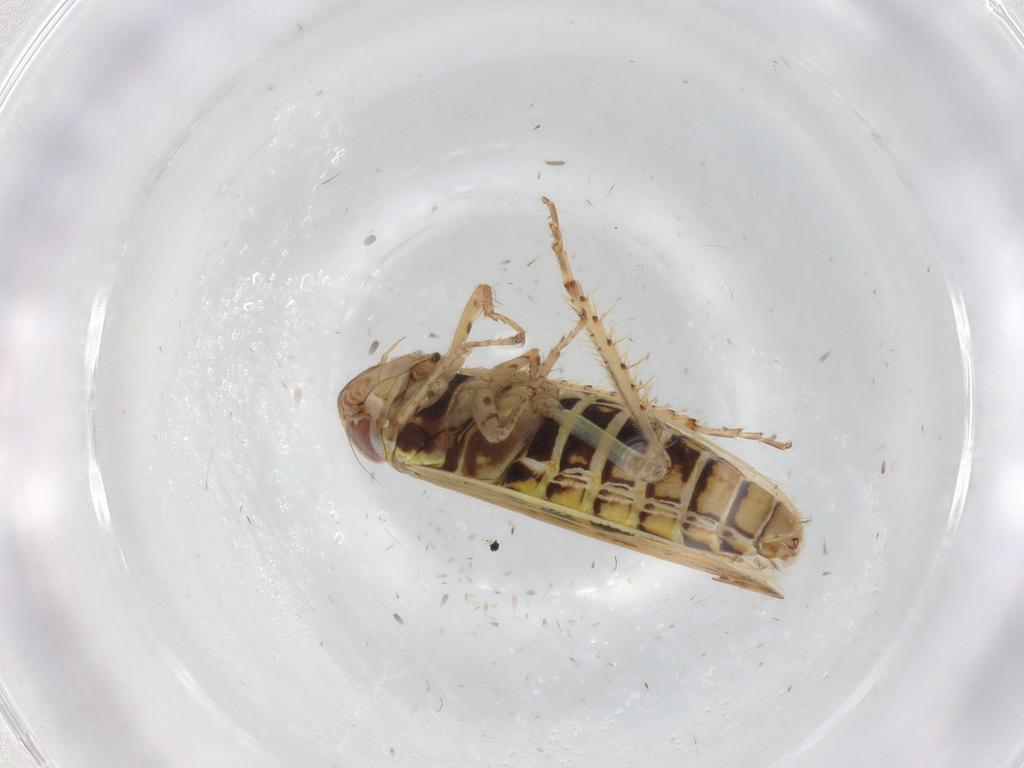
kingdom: Animalia
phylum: Arthropoda
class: Insecta
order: Hemiptera
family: Cicadellidae
